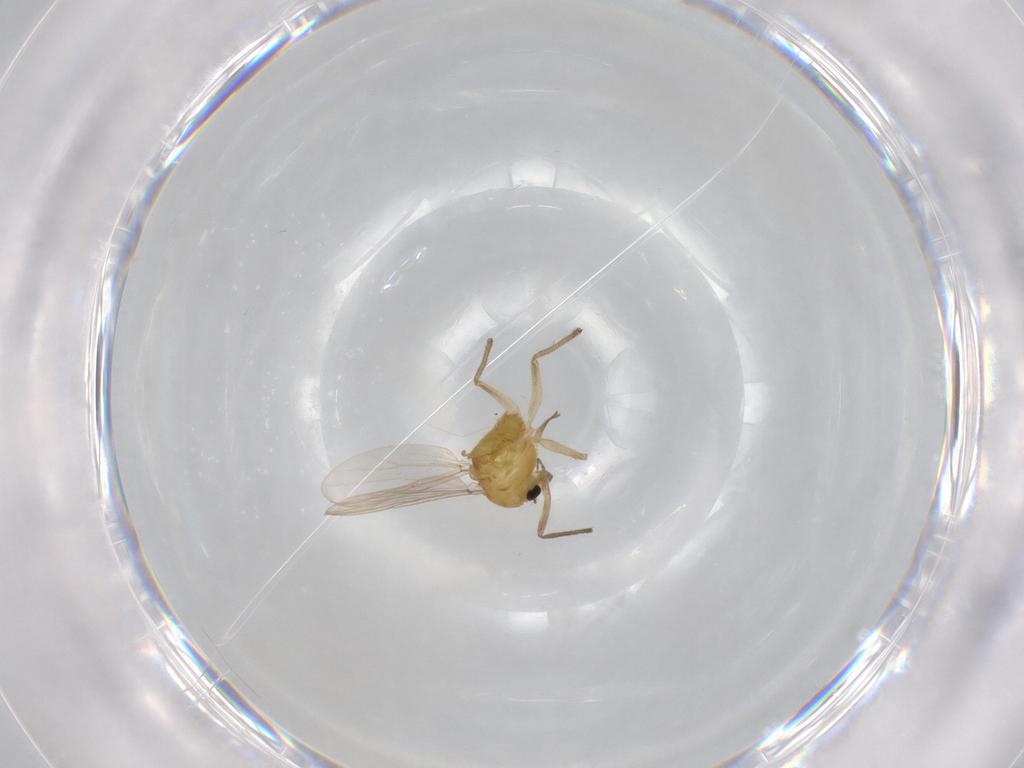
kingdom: Animalia
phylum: Arthropoda
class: Insecta
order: Diptera
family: Chironomidae
